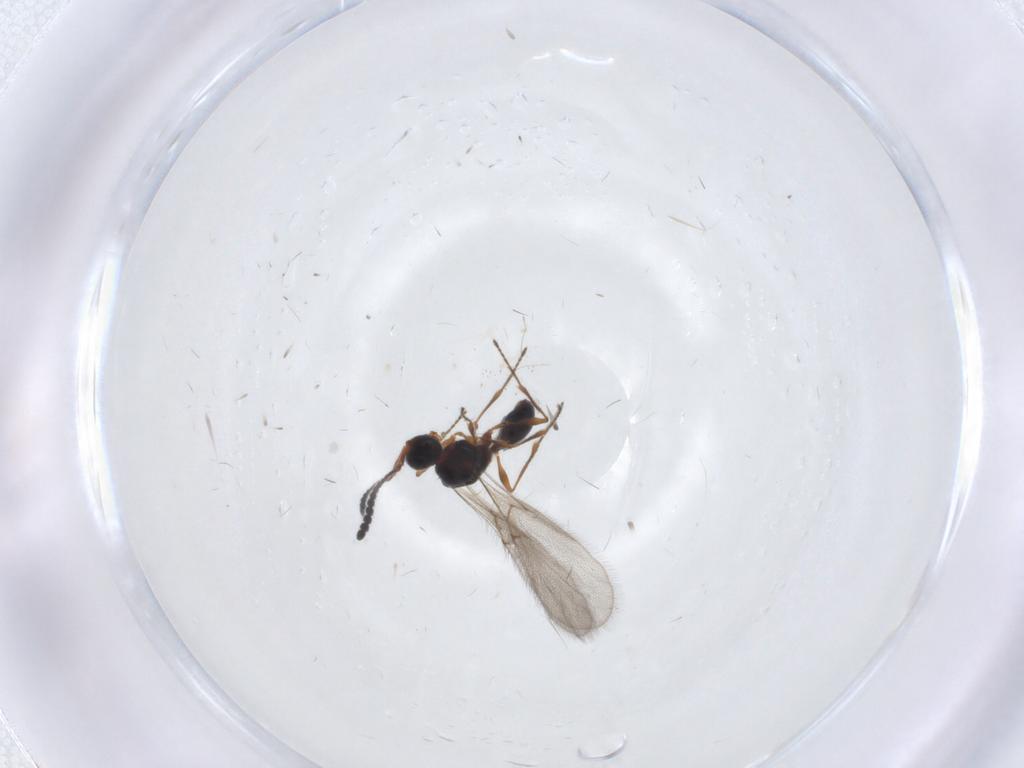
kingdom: Animalia
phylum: Arthropoda
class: Insecta
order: Hymenoptera
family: Diapriidae
